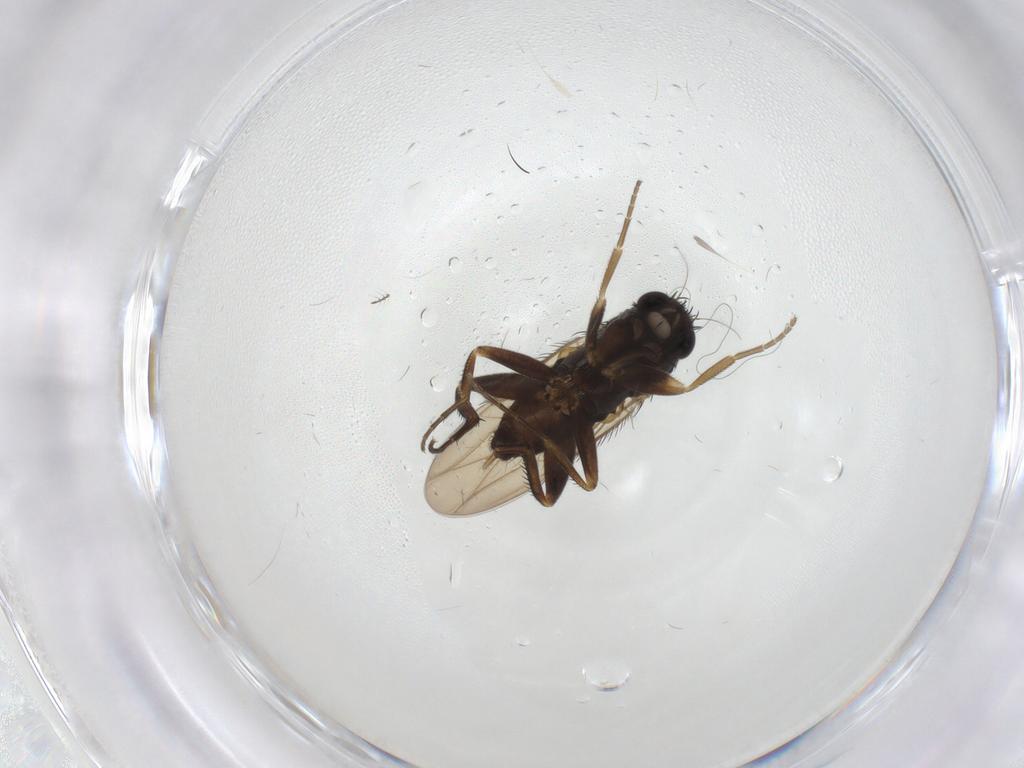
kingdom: Animalia
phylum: Arthropoda
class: Insecta
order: Diptera
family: Phoridae
